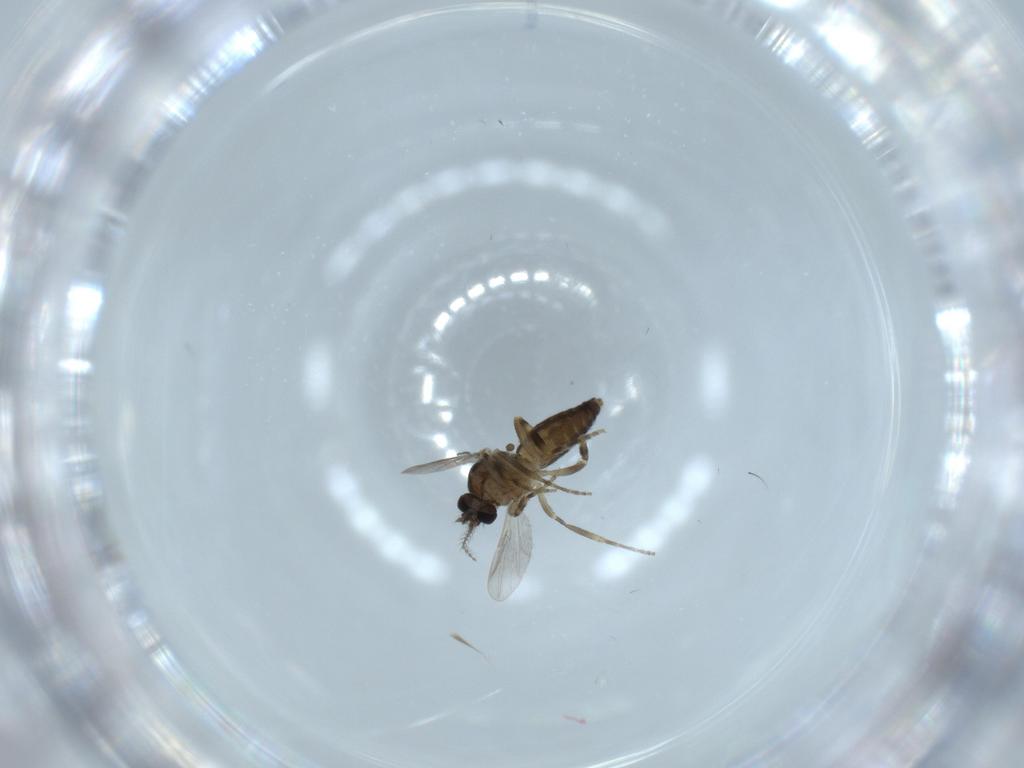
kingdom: Animalia
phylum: Arthropoda
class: Insecta
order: Diptera
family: Ceratopogonidae
